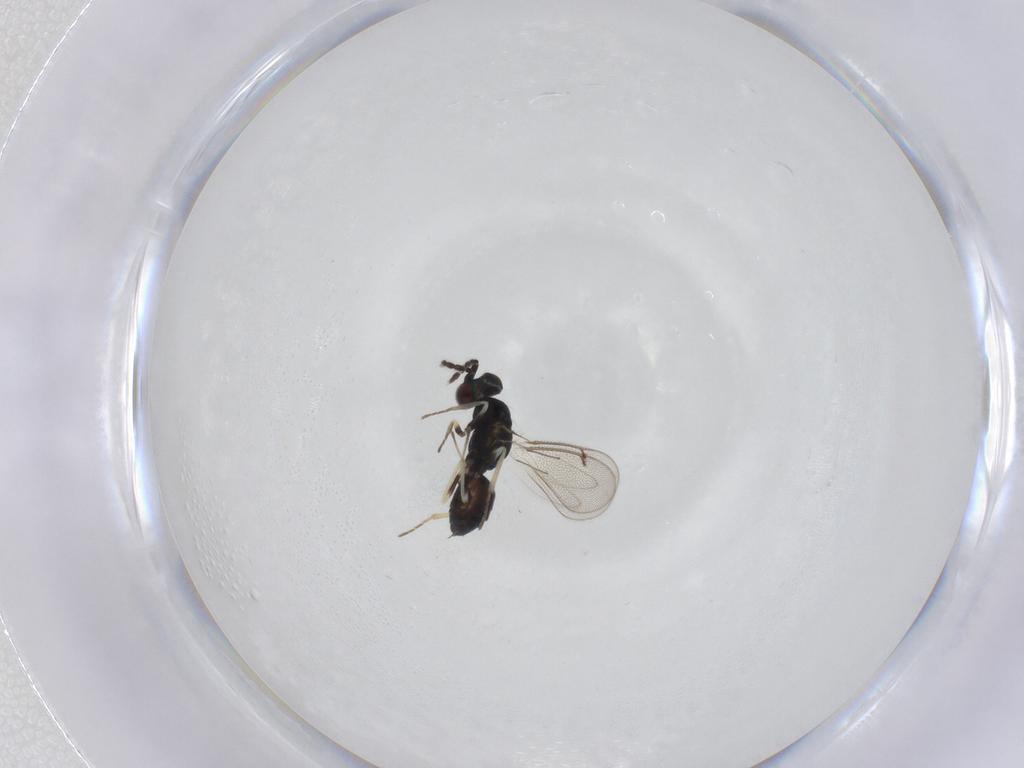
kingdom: Animalia
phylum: Arthropoda
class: Insecta
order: Hymenoptera
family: Eulophidae
